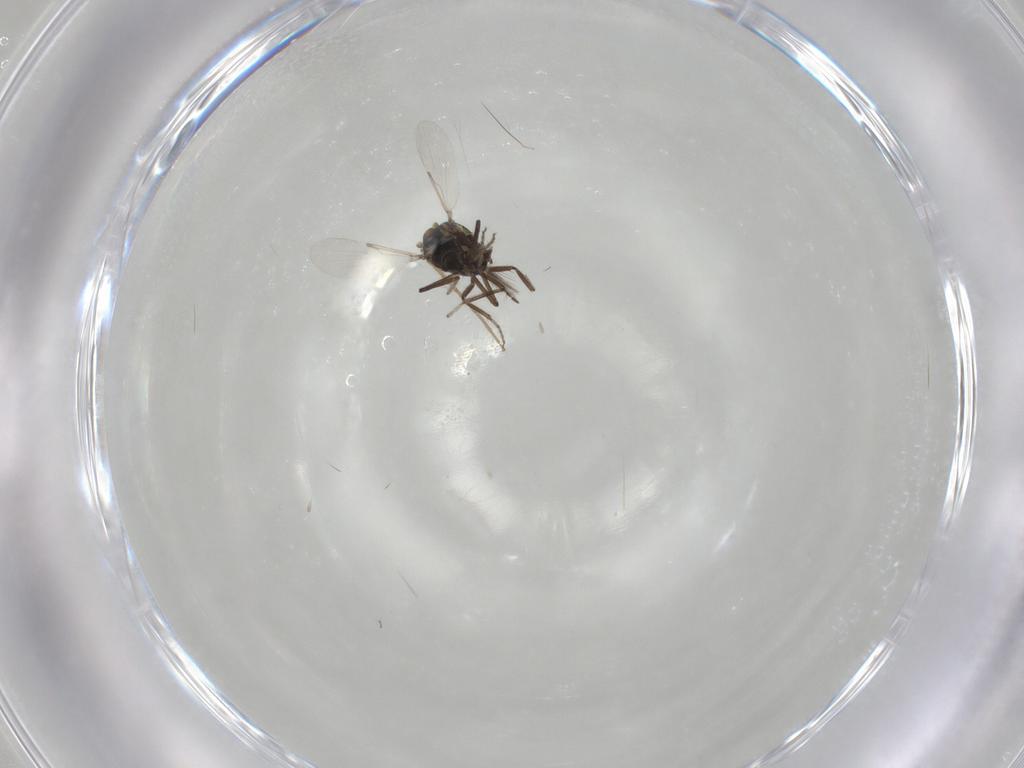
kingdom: Animalia
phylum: Arthropoda
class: Insecta
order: Diptera
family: Ceratopogonidae
